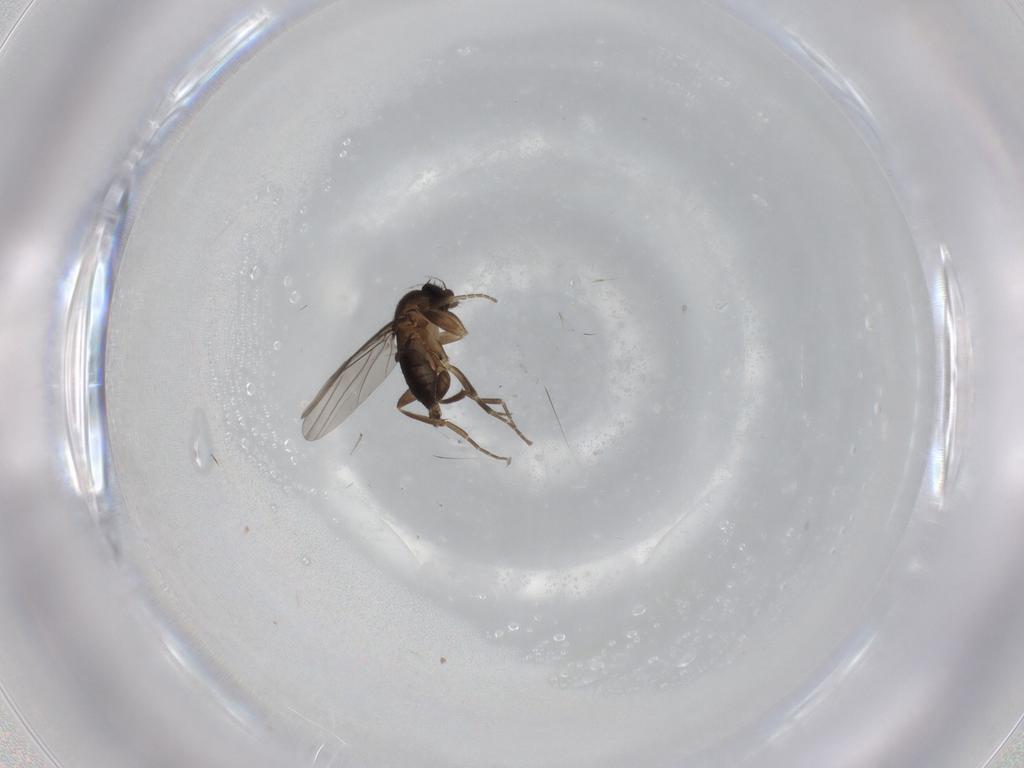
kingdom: Animalia
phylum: Arthropoda
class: Insecta
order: Diptera
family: Phoridae
